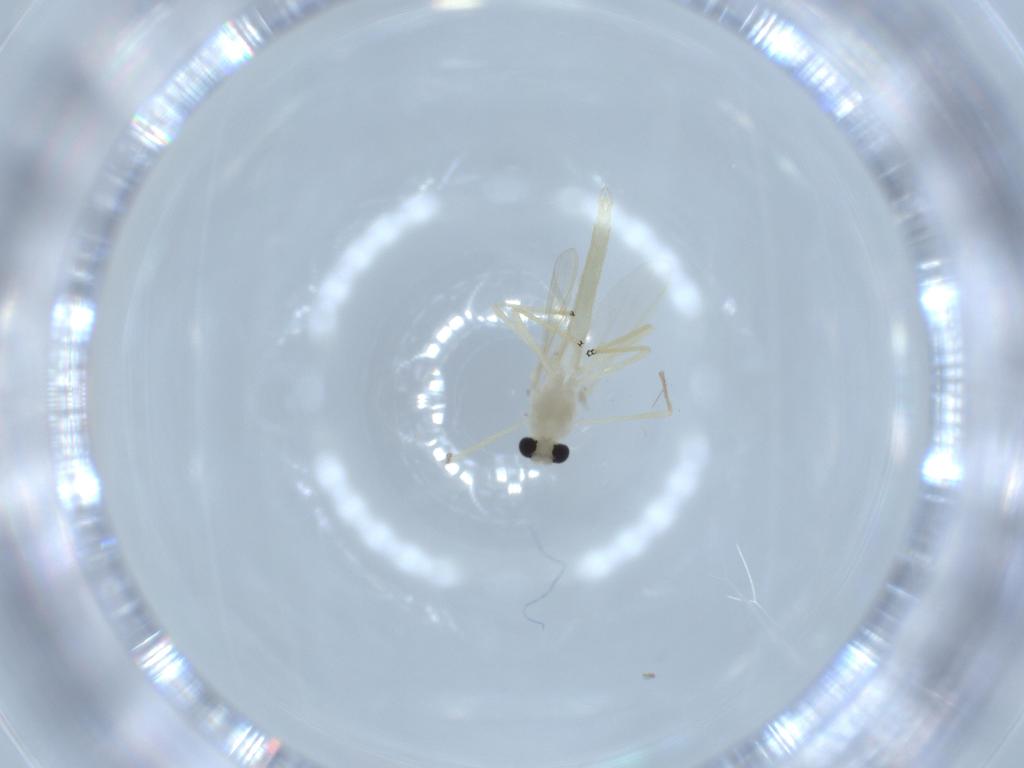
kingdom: Animalia
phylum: Arthropoda
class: Insecta
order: Diptera
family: Chironomidae
